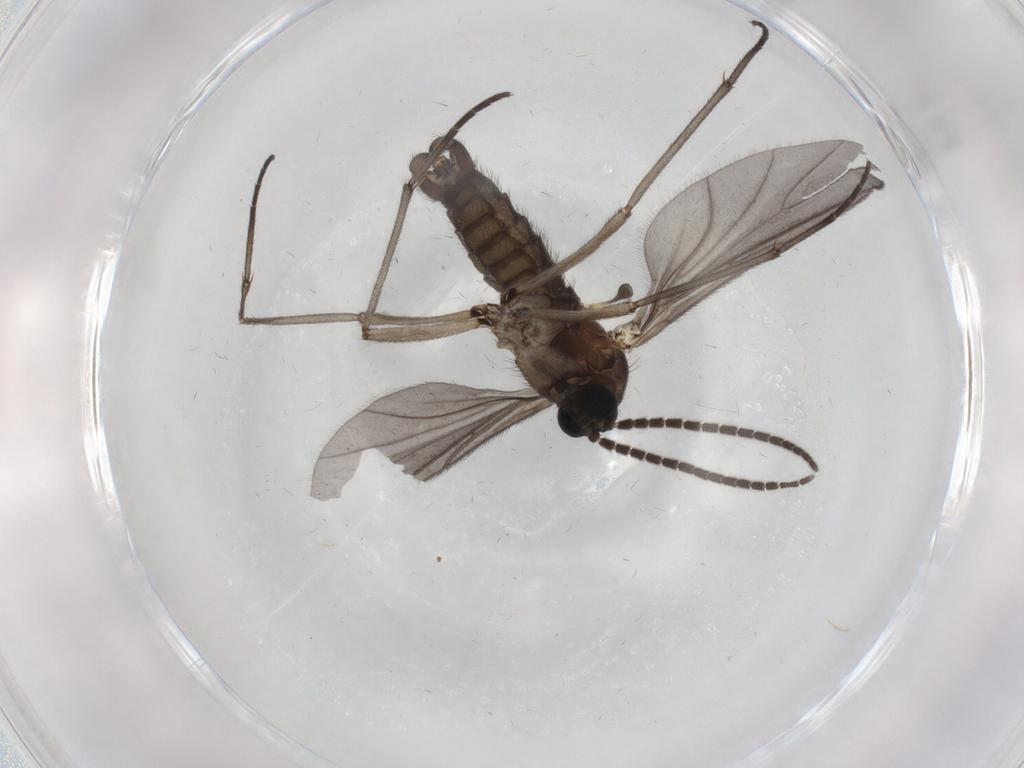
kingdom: Animalia
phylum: Arthropoda
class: Insecta
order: Diptera
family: Sciaridae
